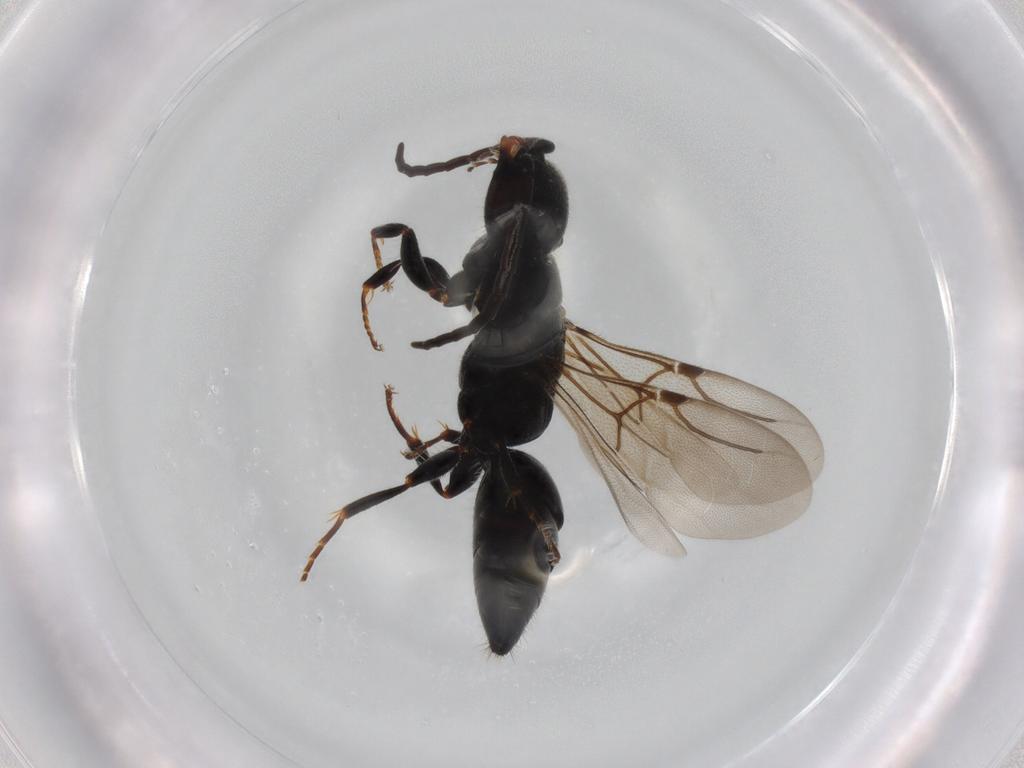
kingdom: Animalia
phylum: Arthropoda
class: Insecta
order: Hymenoptera
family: Bethylidae
